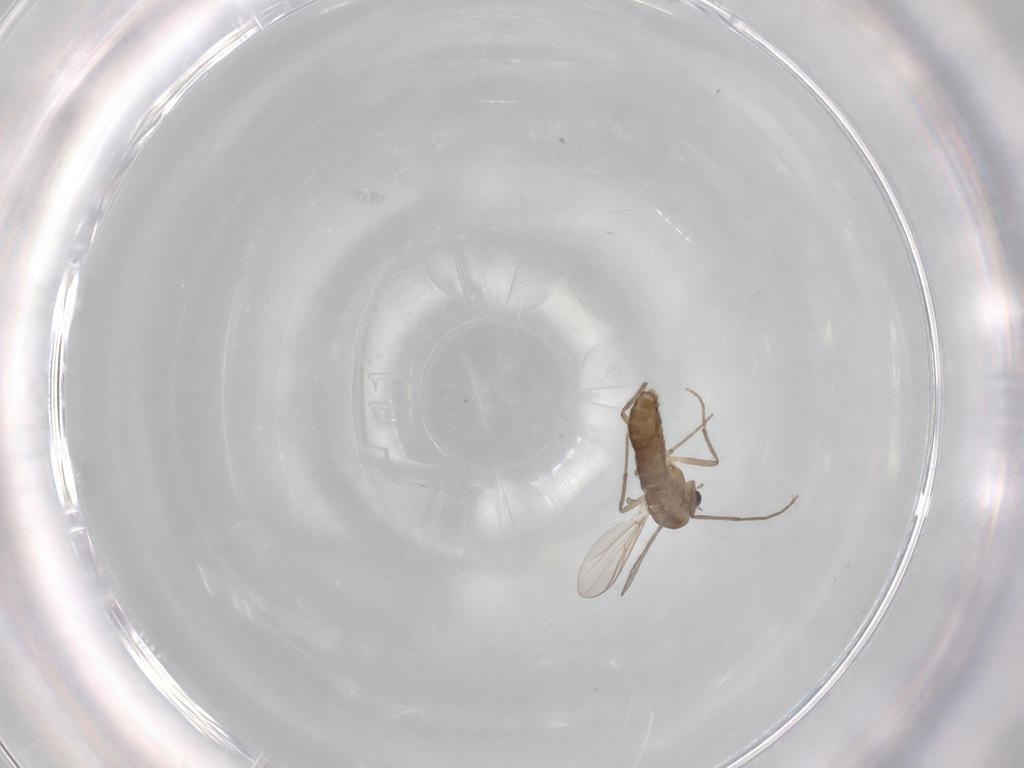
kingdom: Animalia
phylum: Arthropoda
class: Insecta
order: Diptera
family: Chironomidae
